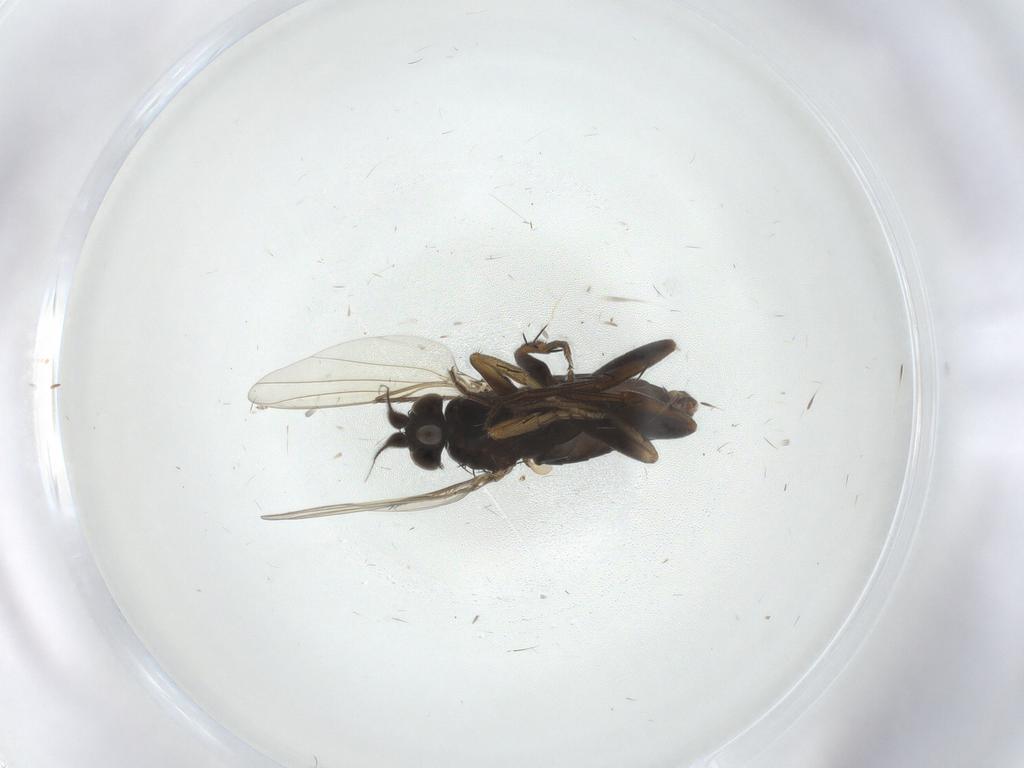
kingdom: Animalia
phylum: Arthropoda
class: Insecta
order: Diptera
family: Phoridae
